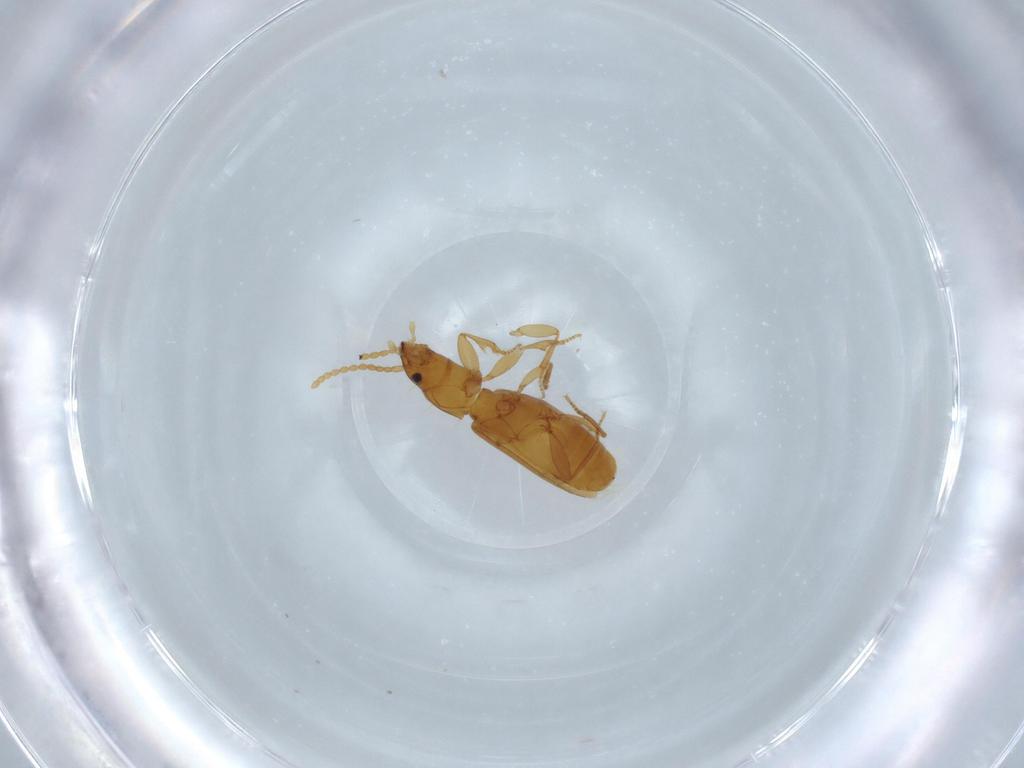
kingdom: Animalia
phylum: Arthropoda
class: Insecta
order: Coleoptera
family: Carabidae
